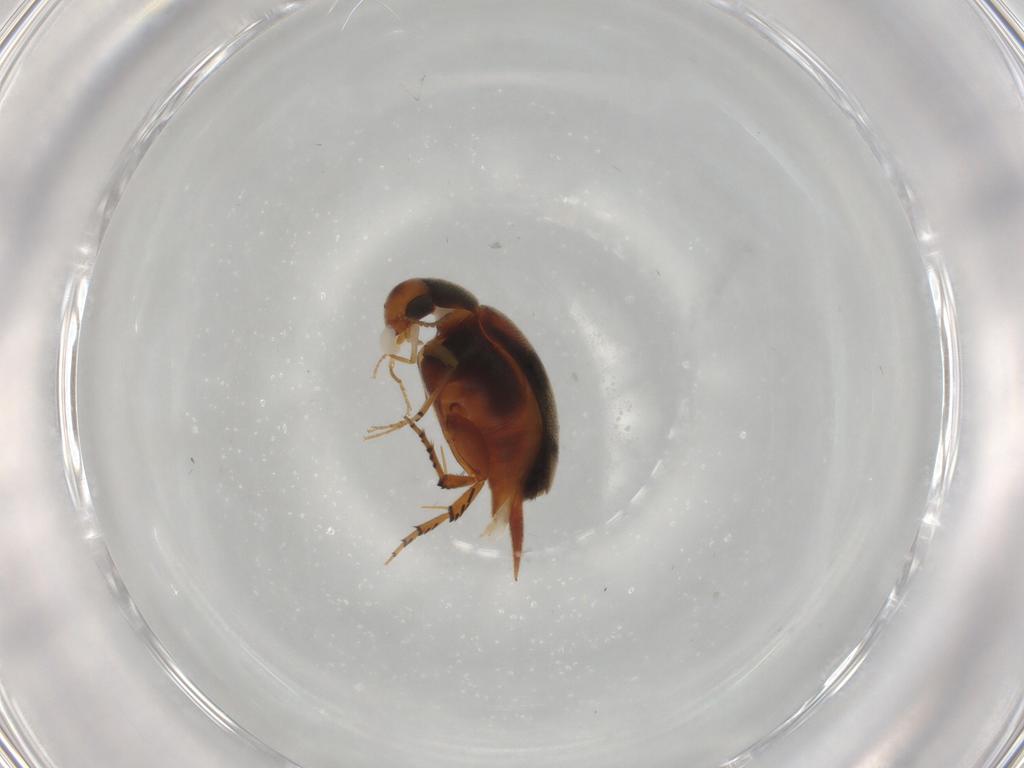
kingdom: Animalia
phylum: Arthropoda
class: Insecta
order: Coleoptera
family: Mordellidae
